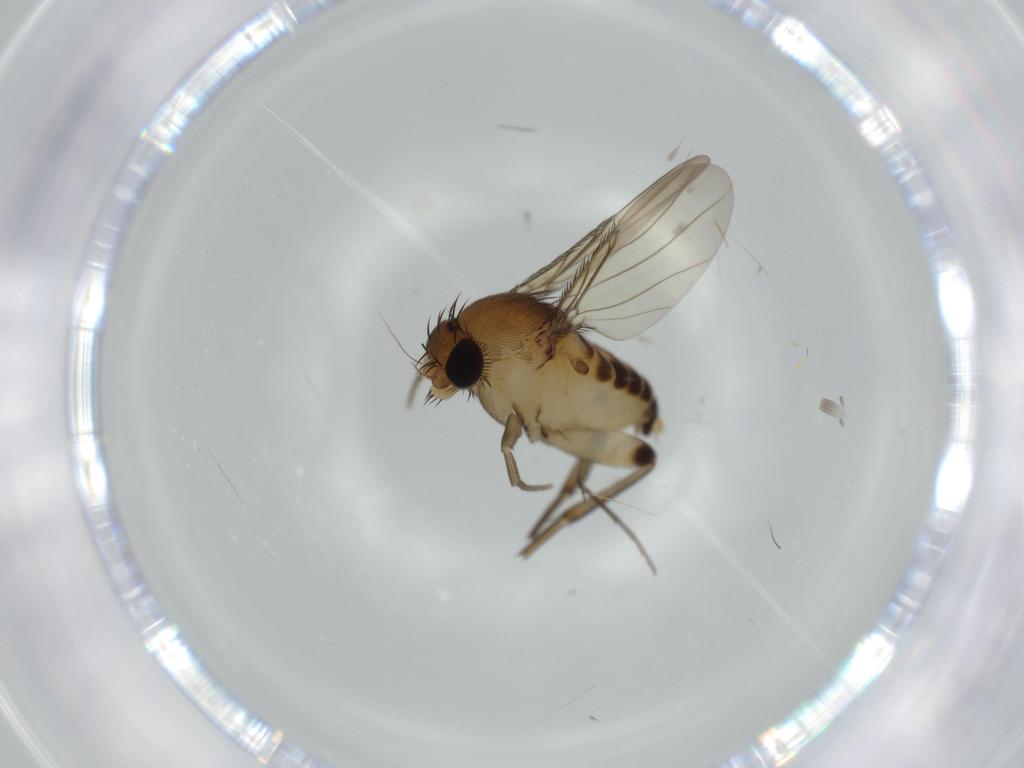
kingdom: Animalia
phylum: Arthropoda
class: Insecta
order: Diptera
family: Phoridae
